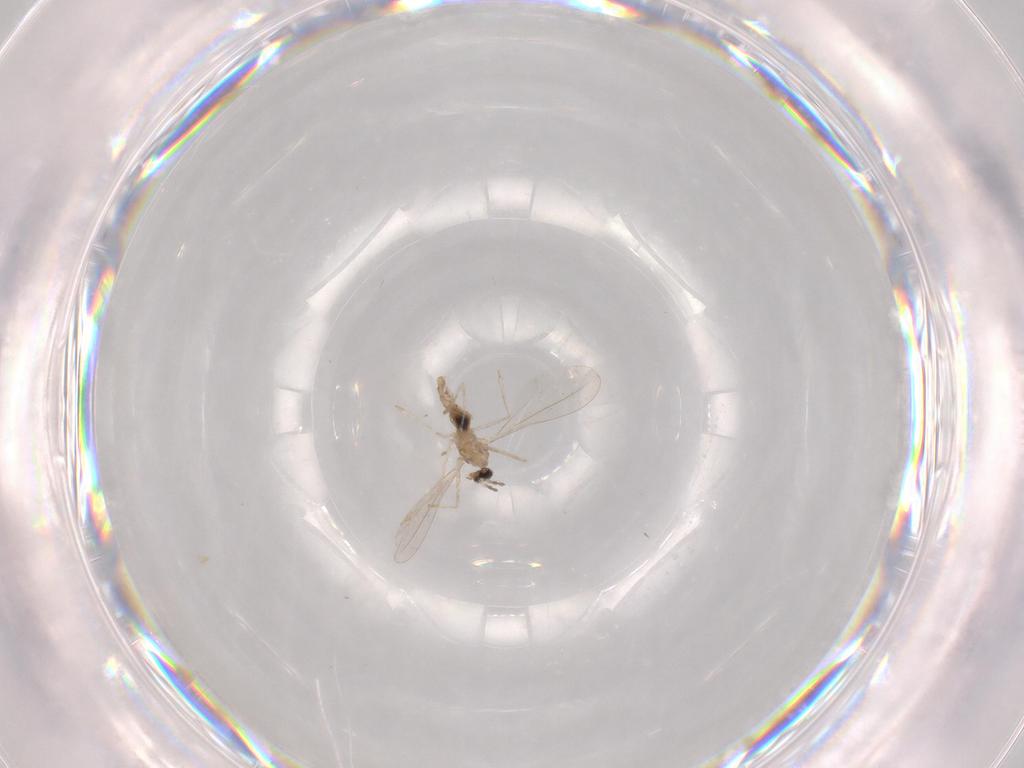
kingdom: Animalia
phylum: Arthropoda
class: Insecta
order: Diptera
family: Cecidomyiidae
